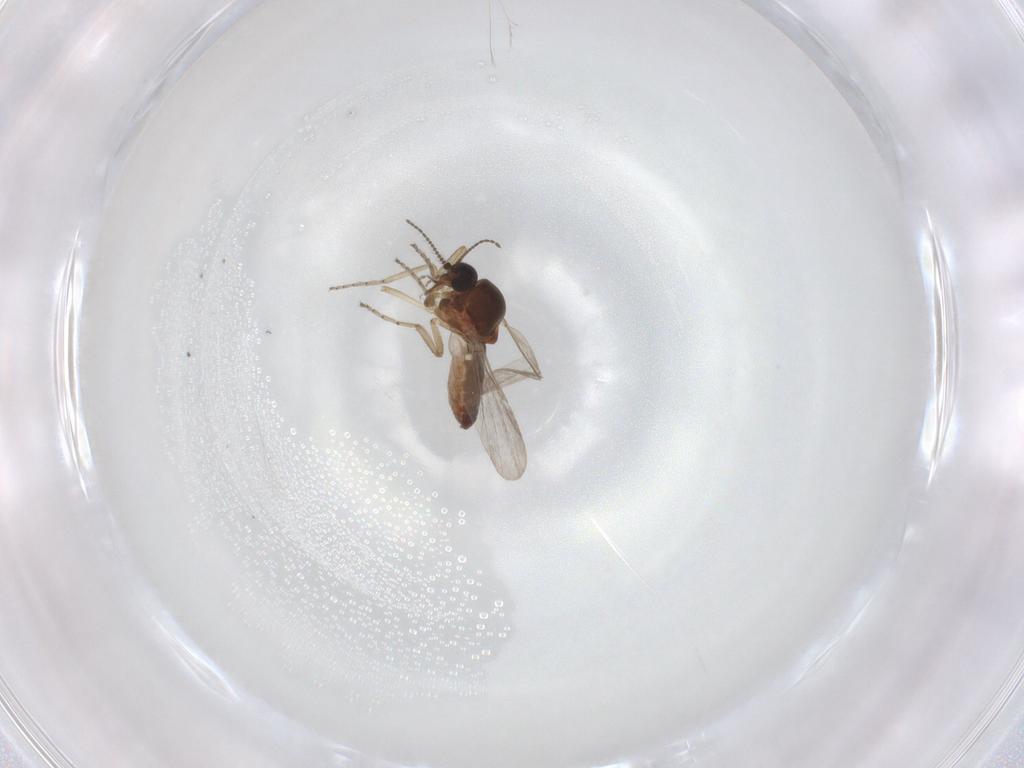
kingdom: Animalia
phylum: Arthropoda
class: Insecta
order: Diptera
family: Ceratopogonidae
